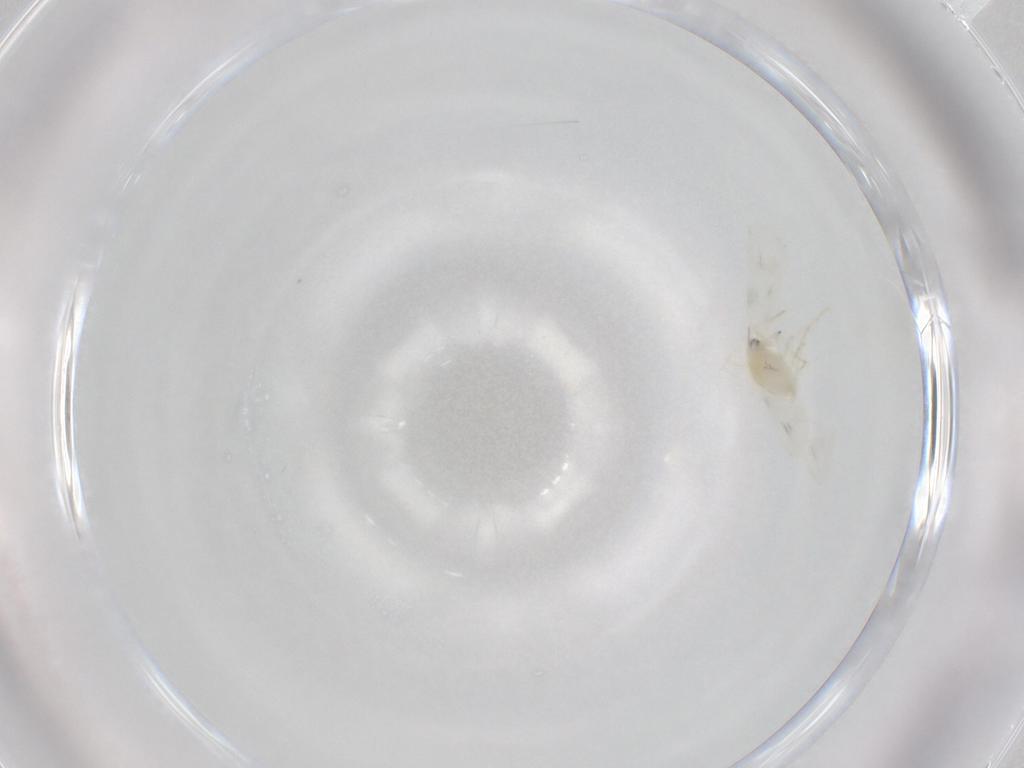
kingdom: Animalia
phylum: Arthropoda
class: Insecta
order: Hemiptera
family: Aleyrodidae
